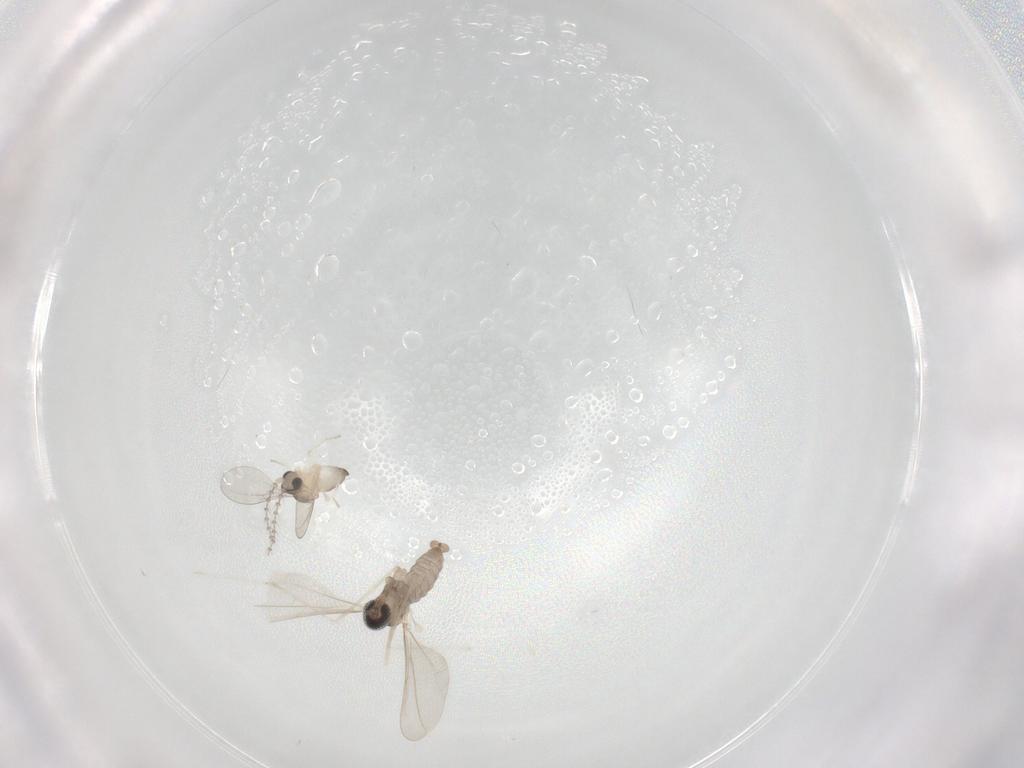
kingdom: Animalia
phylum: Arthropoda
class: Insecta
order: Diptera
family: Cecidomyiidae
